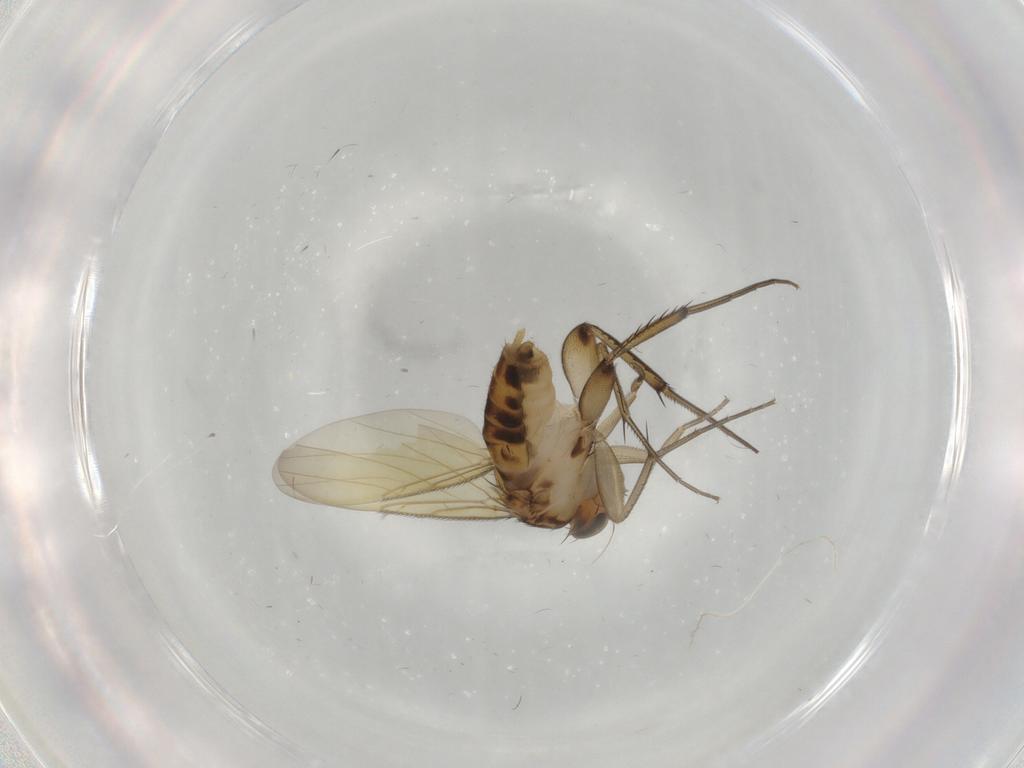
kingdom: Animalia
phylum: Arthropoda
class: Insecta
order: Diptera
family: Phoridae
